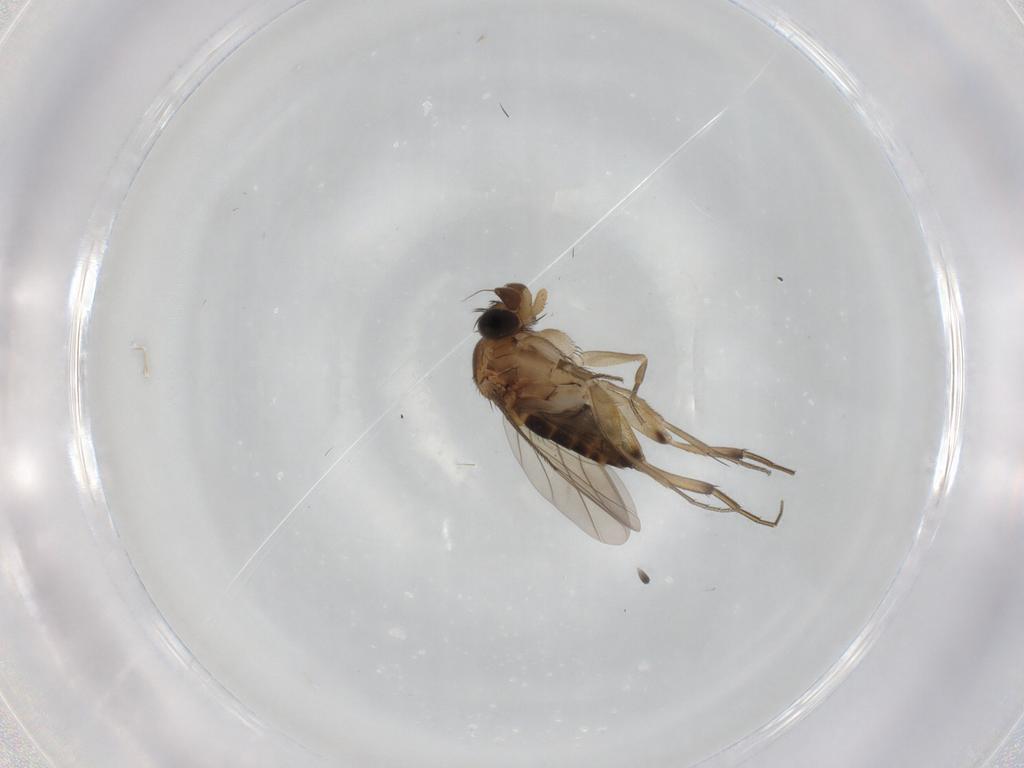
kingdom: Animalia
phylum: Arthropoda
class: Insecta
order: Diptera
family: Phoridae
